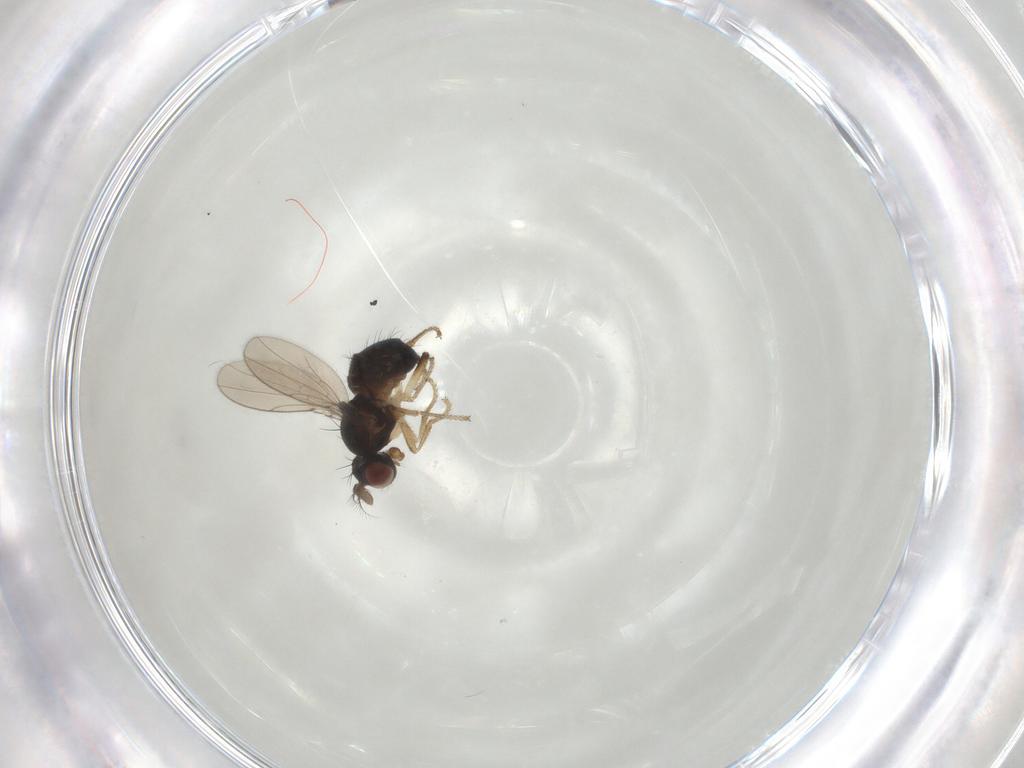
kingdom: Animalia
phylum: Arthropoda
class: Insecta
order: Diptera
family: Ephydridae
